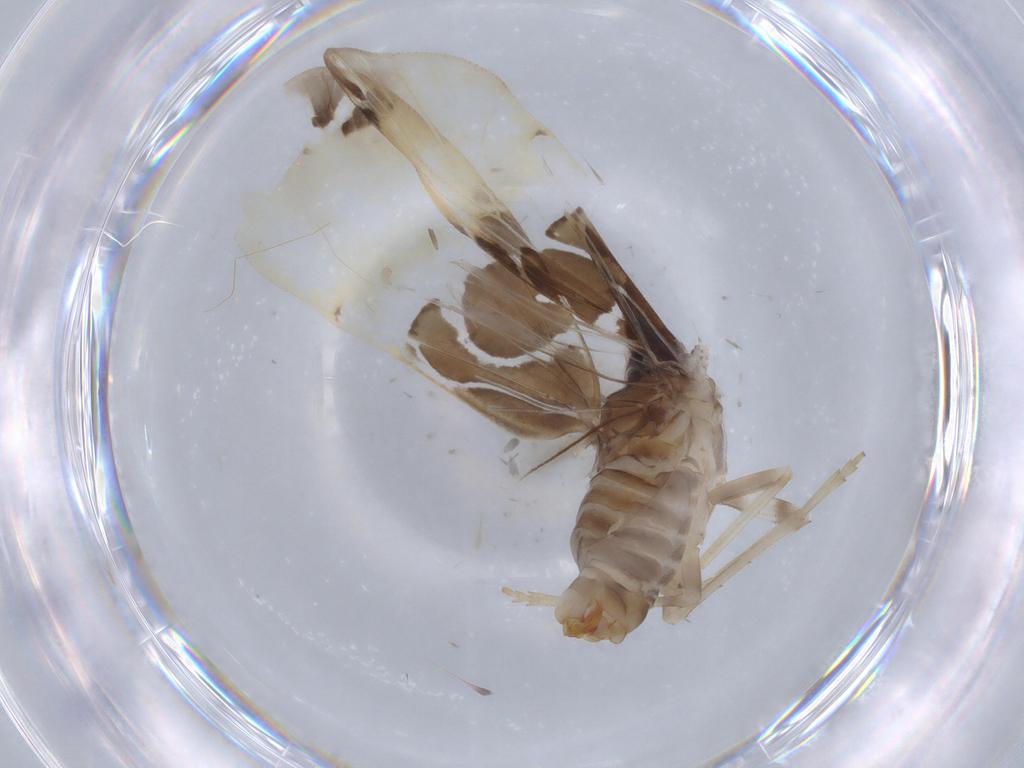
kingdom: Animalia
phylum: Arthropoda
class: Insecta
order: Hemiptera
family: Cixiidae
